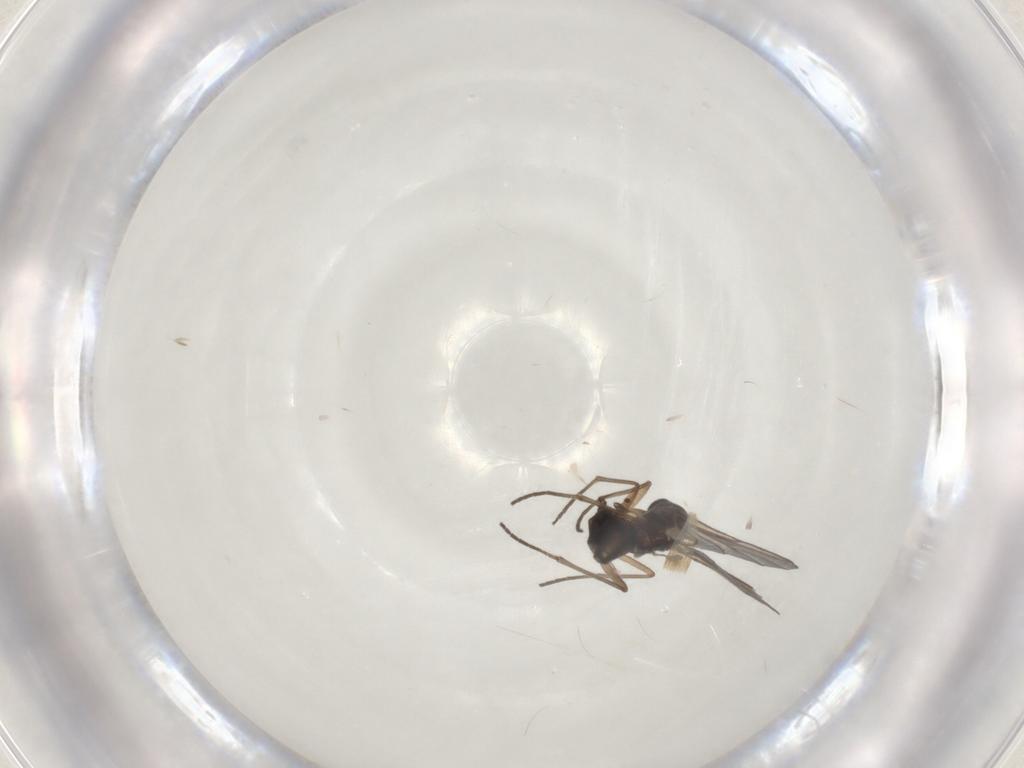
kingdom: Animalia
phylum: Arthropoda
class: Insecta
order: Diptera
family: Sciaridae
